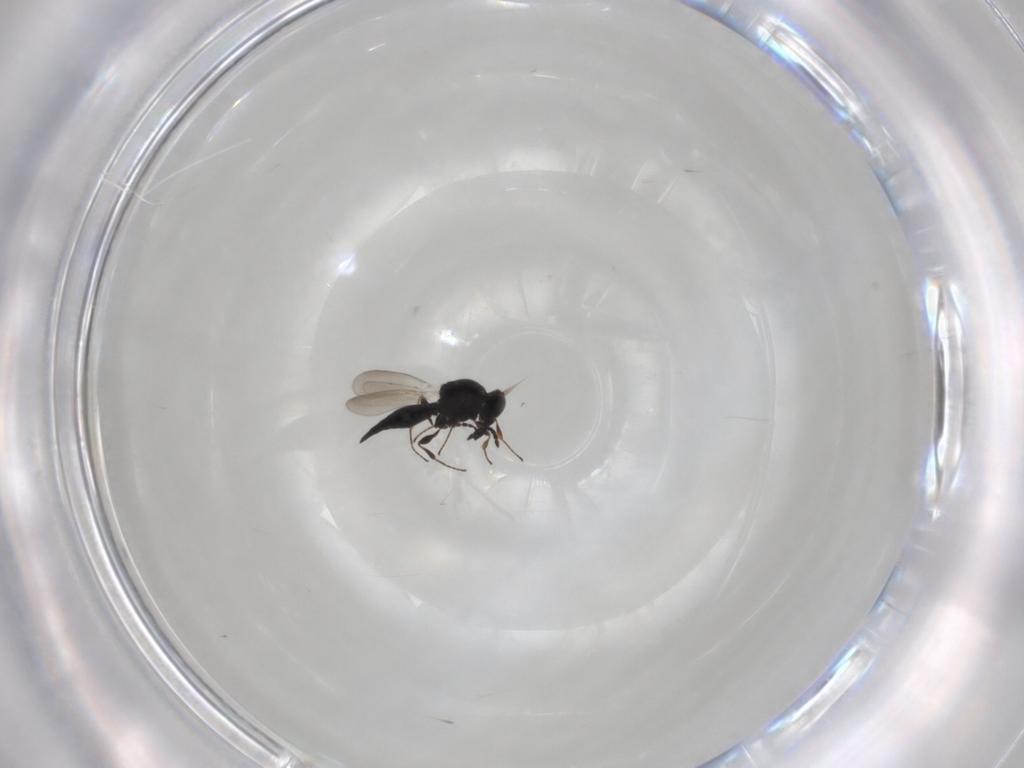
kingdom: Animalia
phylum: Arthropoda
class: Insecta
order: Hymenoptera
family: Platygastridae
